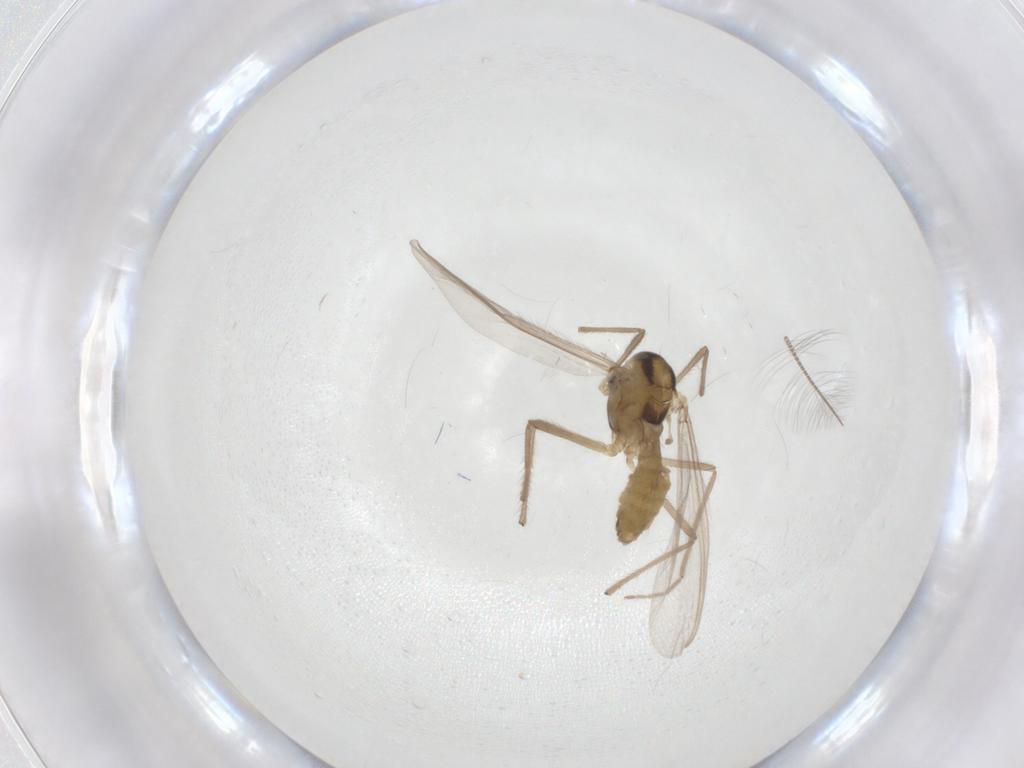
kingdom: Animalia
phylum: Arthropoda
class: Insecta
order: Diptera
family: Chironomidae
